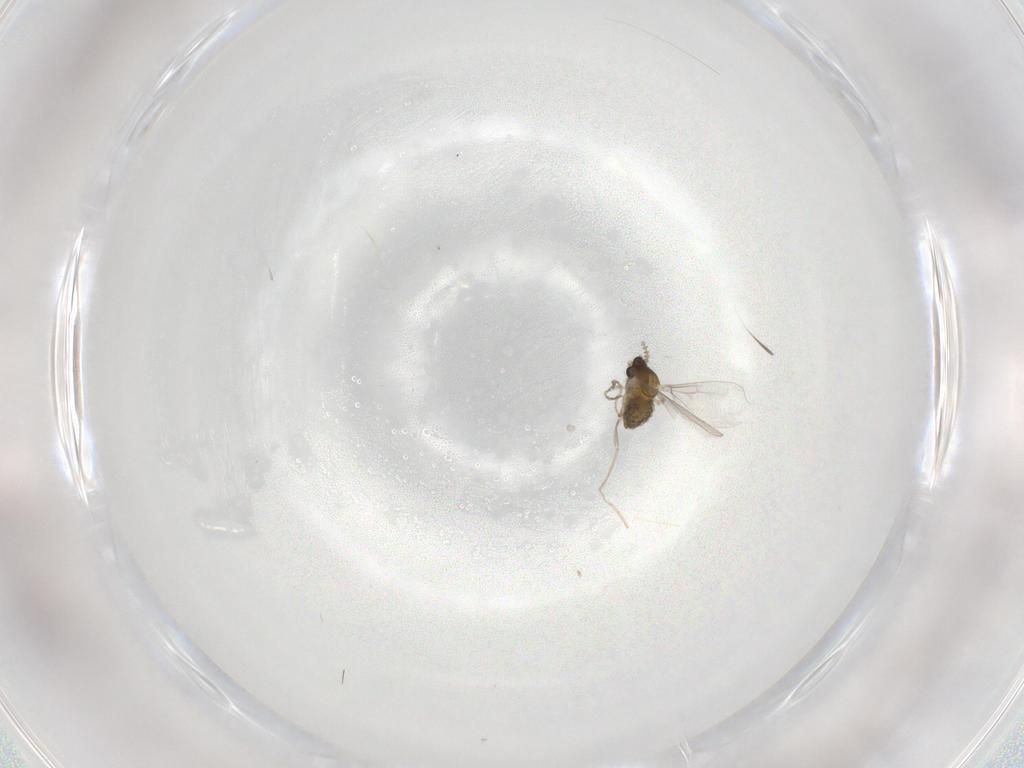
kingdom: Animalia
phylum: Arthropoda
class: Insecta
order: Diptera
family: Cecidomyiidae
